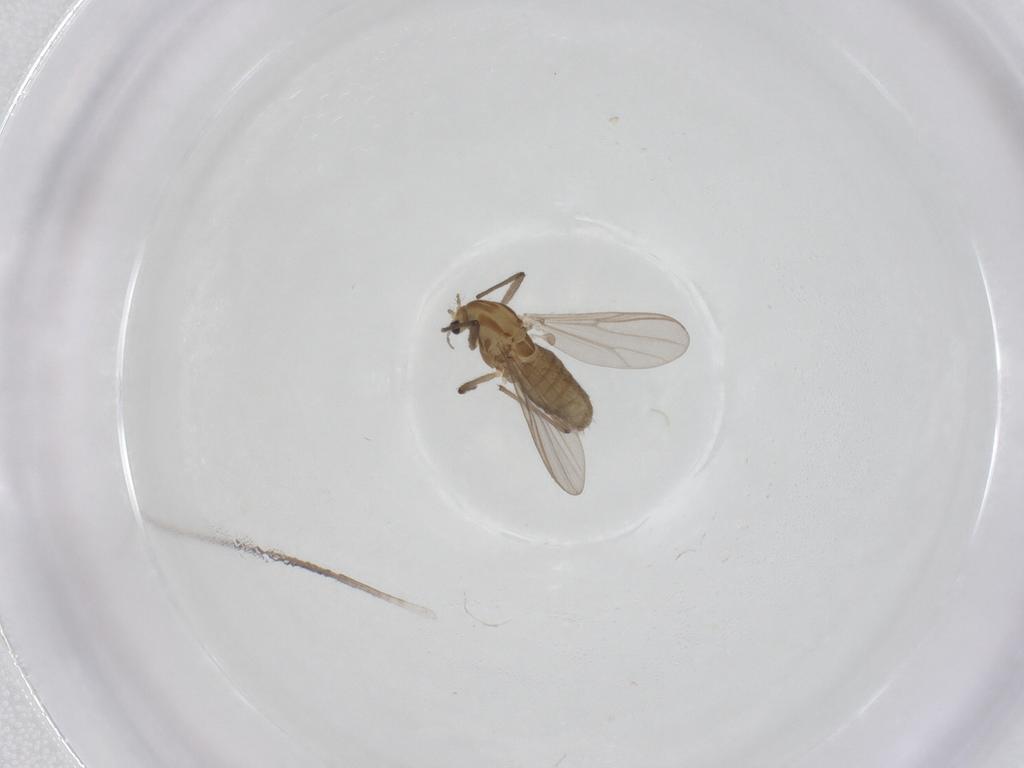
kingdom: Animalia
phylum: Arthropoda
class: Insecta
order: Diptera
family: Chironomidae
